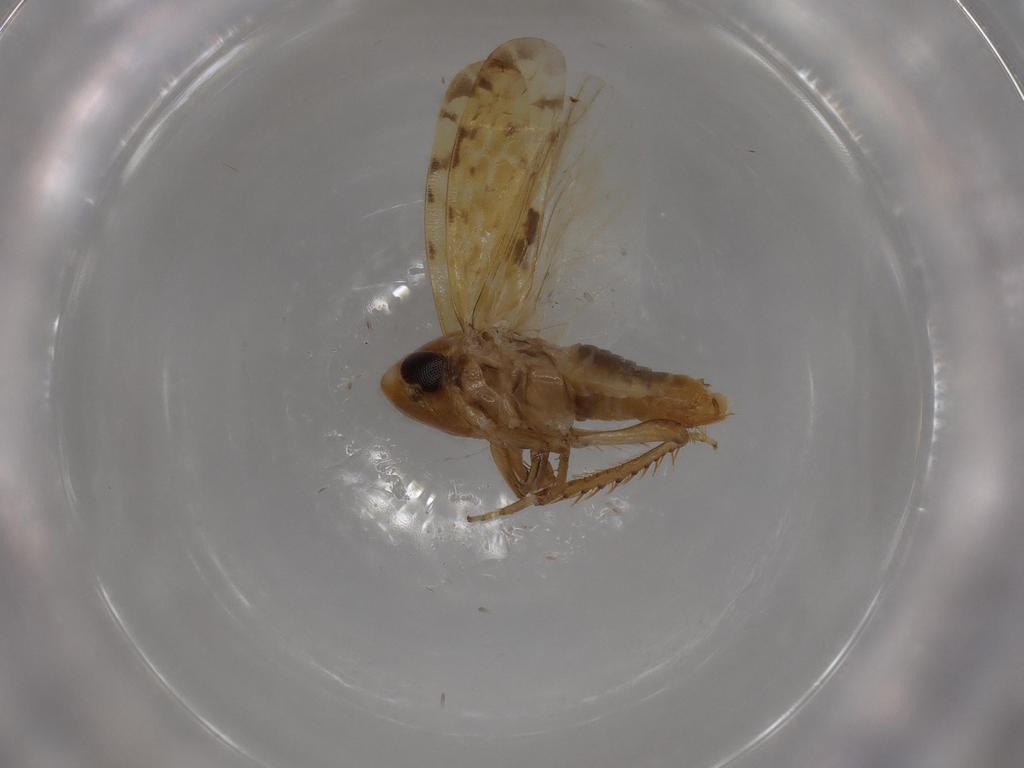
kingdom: Animalia
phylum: Arthropoda
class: Insecta
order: Hemiptera
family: Cicadellidae
